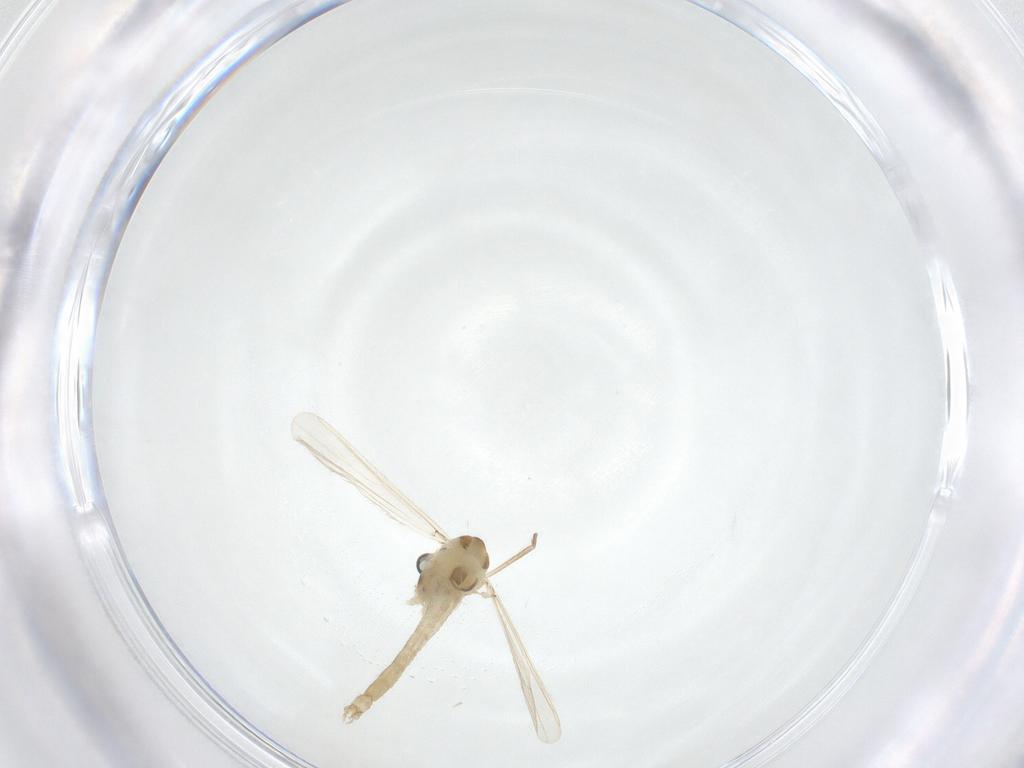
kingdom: Animalia
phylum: Arthropoda
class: Insecta
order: Diptera
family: Chironomidae
